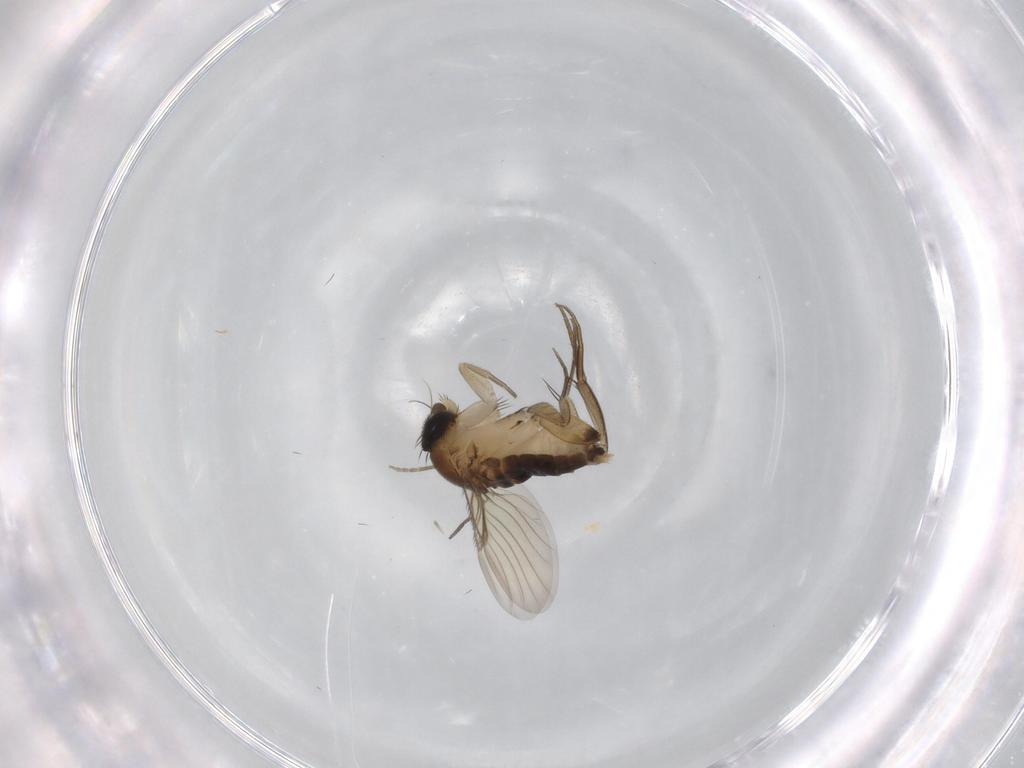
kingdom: Animalia
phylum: Arthropoda
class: Insecta
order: Diptera
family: Phoridae
